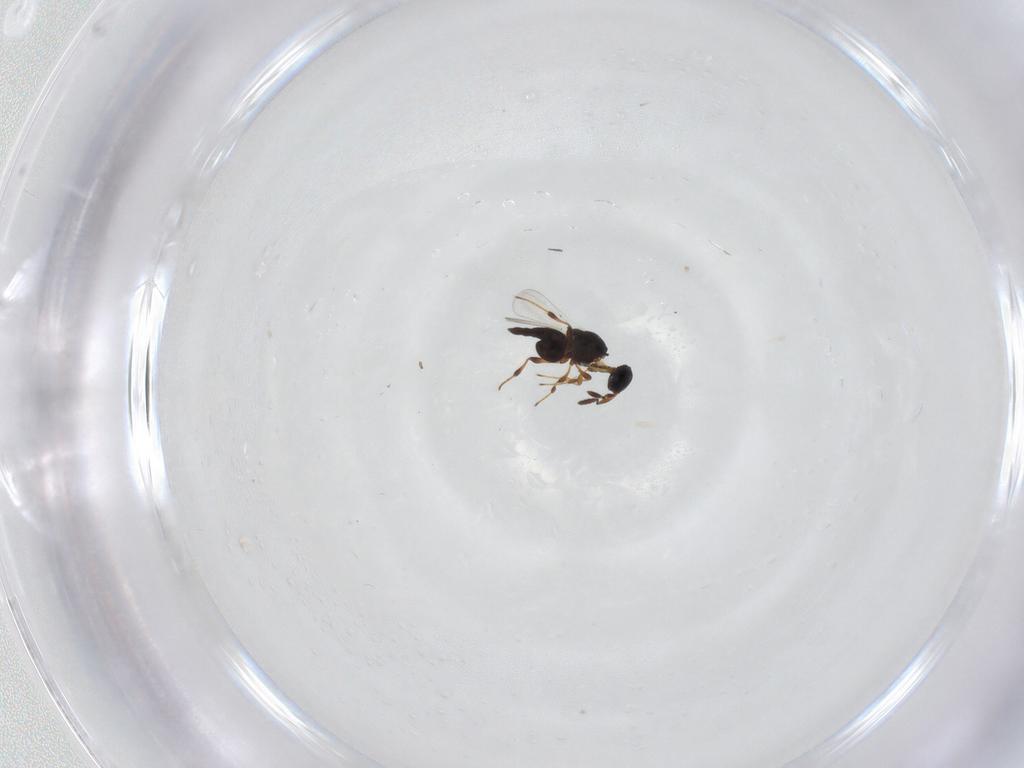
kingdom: Animalia
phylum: Arthropoda
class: Insecta
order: Hymenoptera
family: Platygastridae
